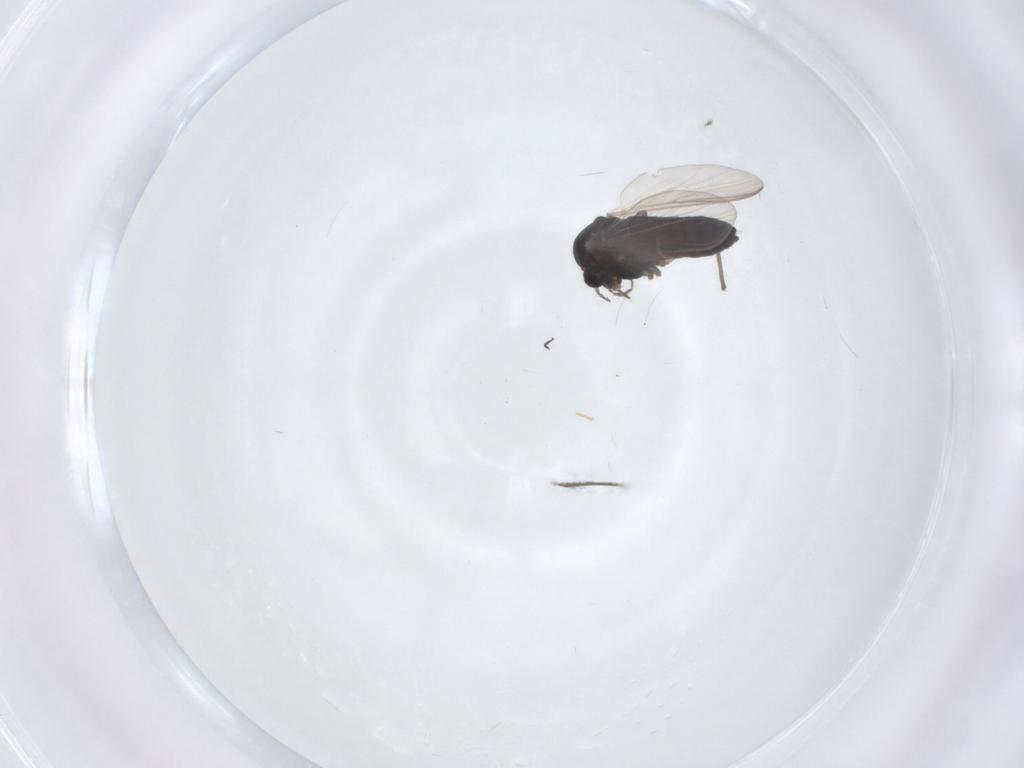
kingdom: Animalia
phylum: Arthropoda
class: Insecta
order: Diptera
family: Chironomidae
